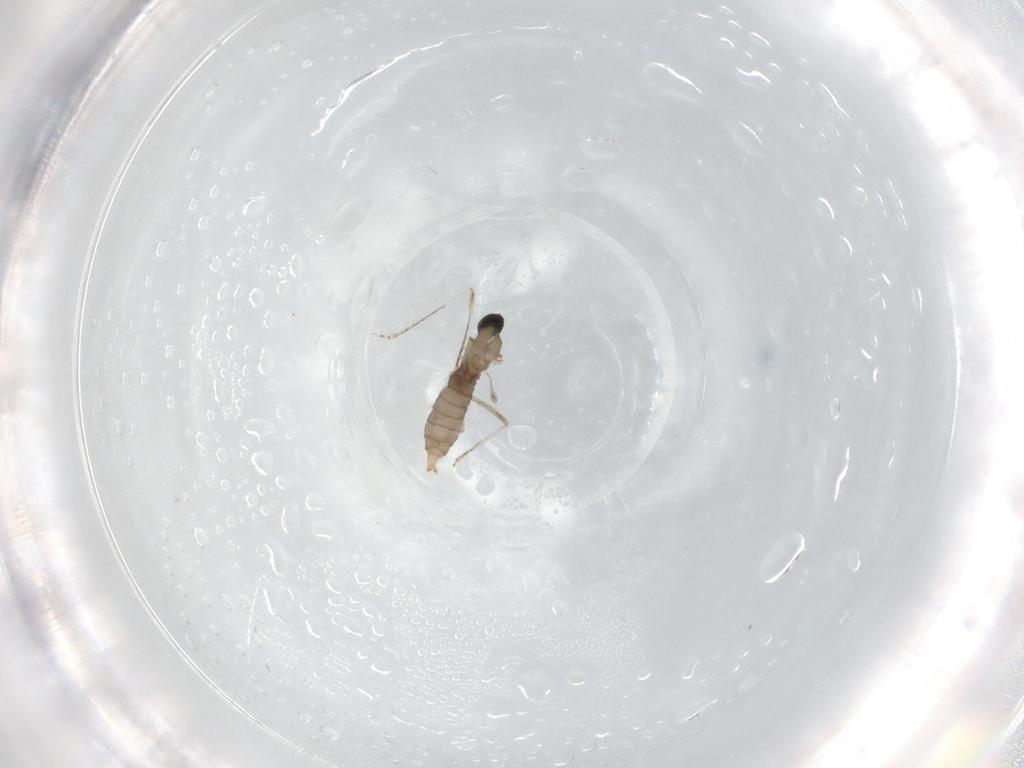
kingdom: Animalia
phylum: Arthropoda
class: Insecta
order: Diptera
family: Cecidomyiidae
